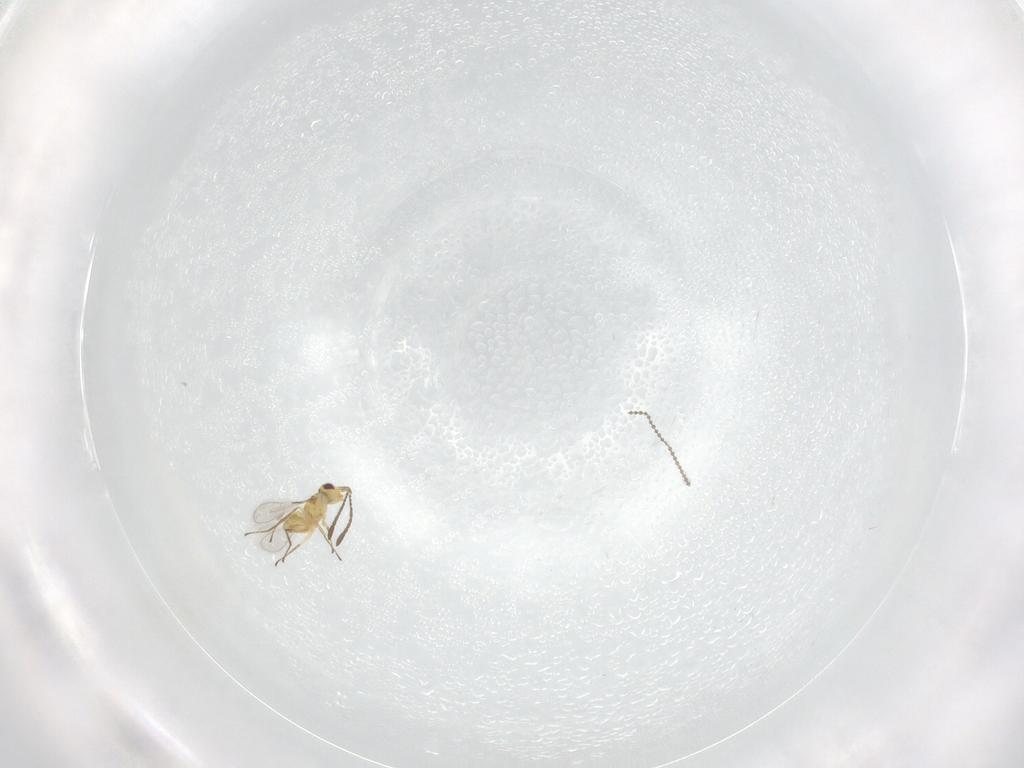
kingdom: Animalia
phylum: Arthropoda
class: Insecta
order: Hymenoptera
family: Mymaridae
